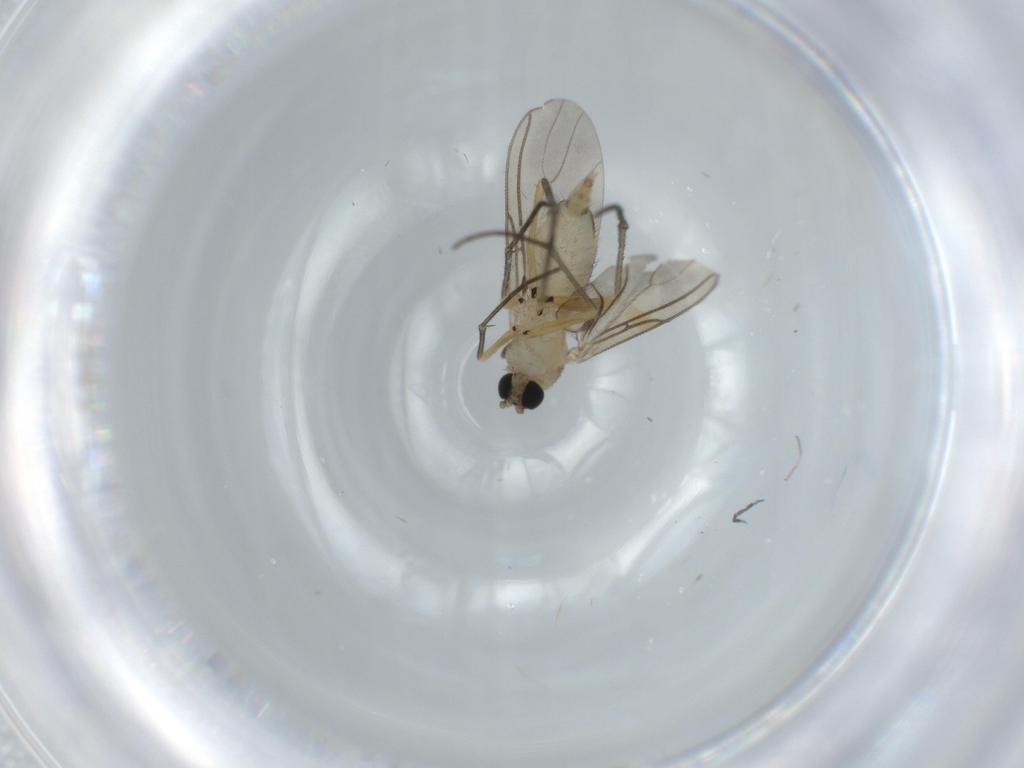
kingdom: Animalia
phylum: Arthropoda
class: Insecta
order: Diptera
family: Sciaridae
